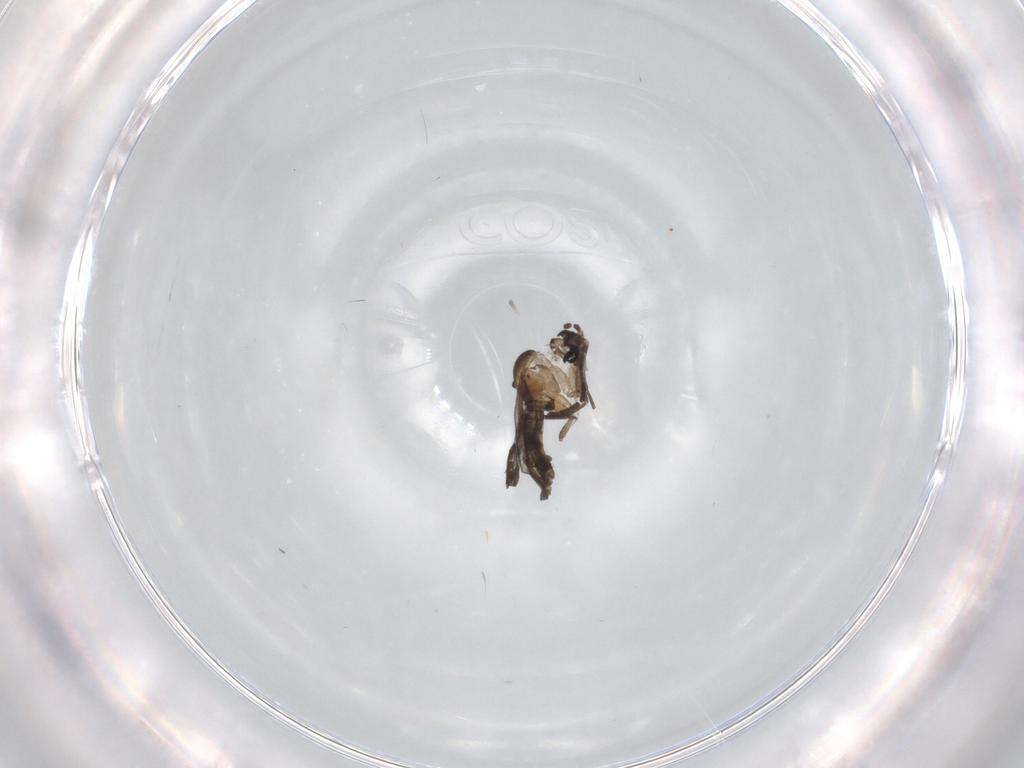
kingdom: Animalia
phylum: Arthropoda
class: Insecta
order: Diptera
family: Sciaridae
